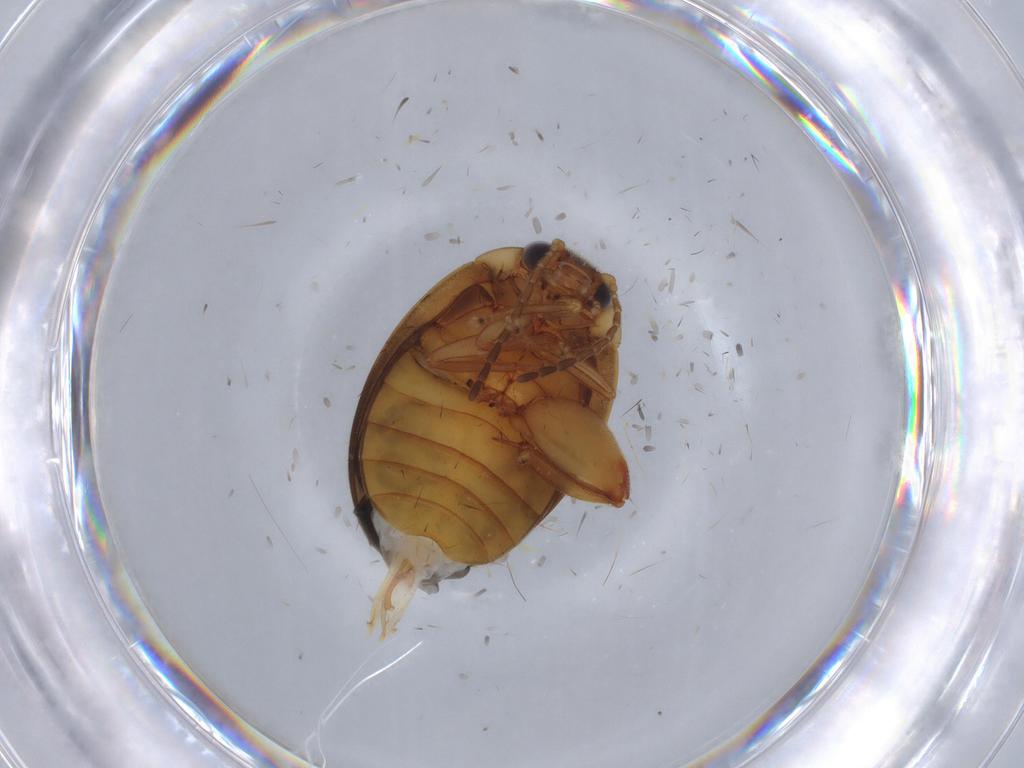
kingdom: Animalia
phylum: Arthropoda
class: Insecta
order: Coleoptera
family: Scirtidae
